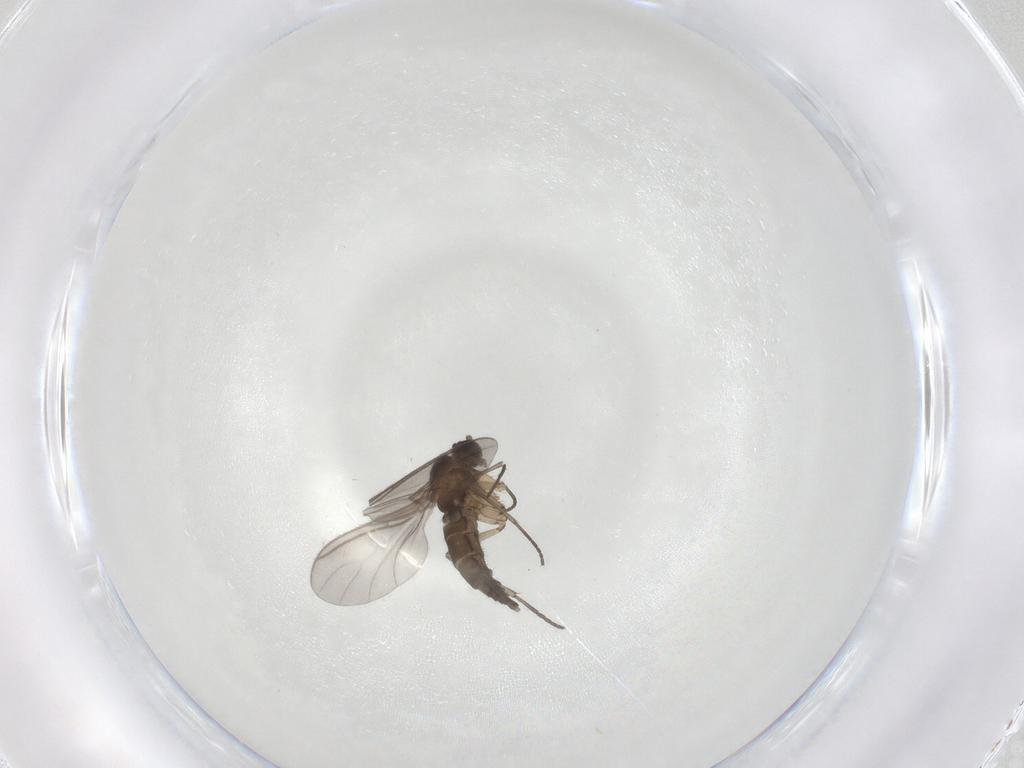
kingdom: Animalia
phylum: Arthropoda
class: Insecta
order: Diptera
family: Sciaridae
